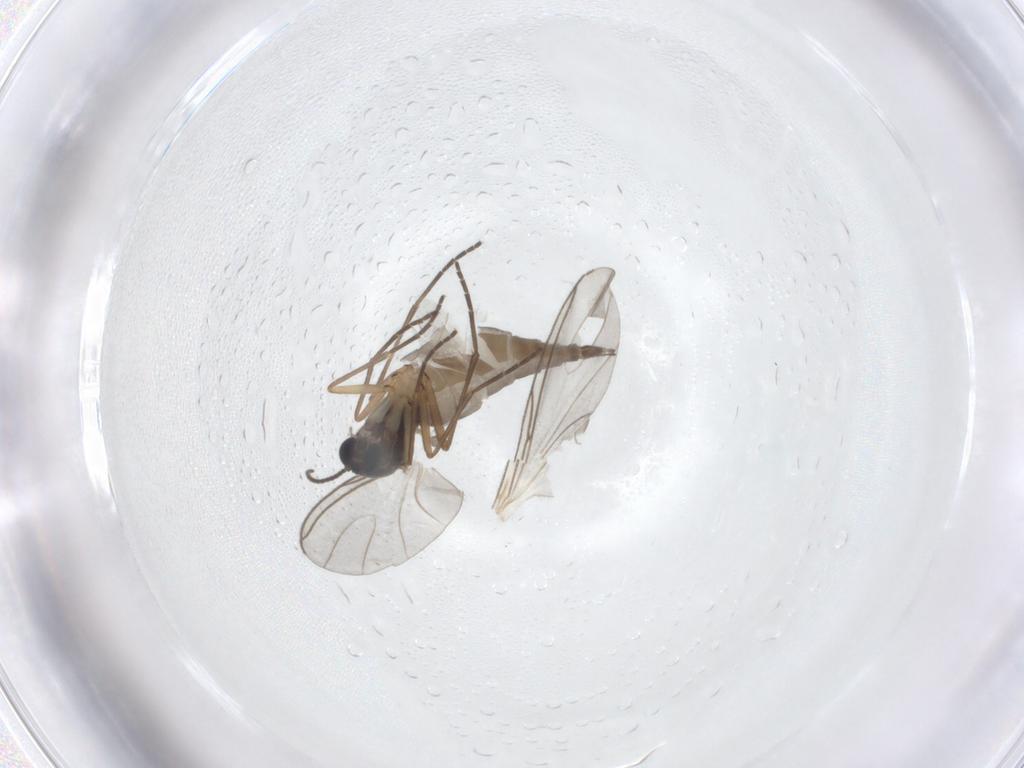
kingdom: Animalia
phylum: Arthropoda
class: Insecta
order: Diptera
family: Sciaridae
